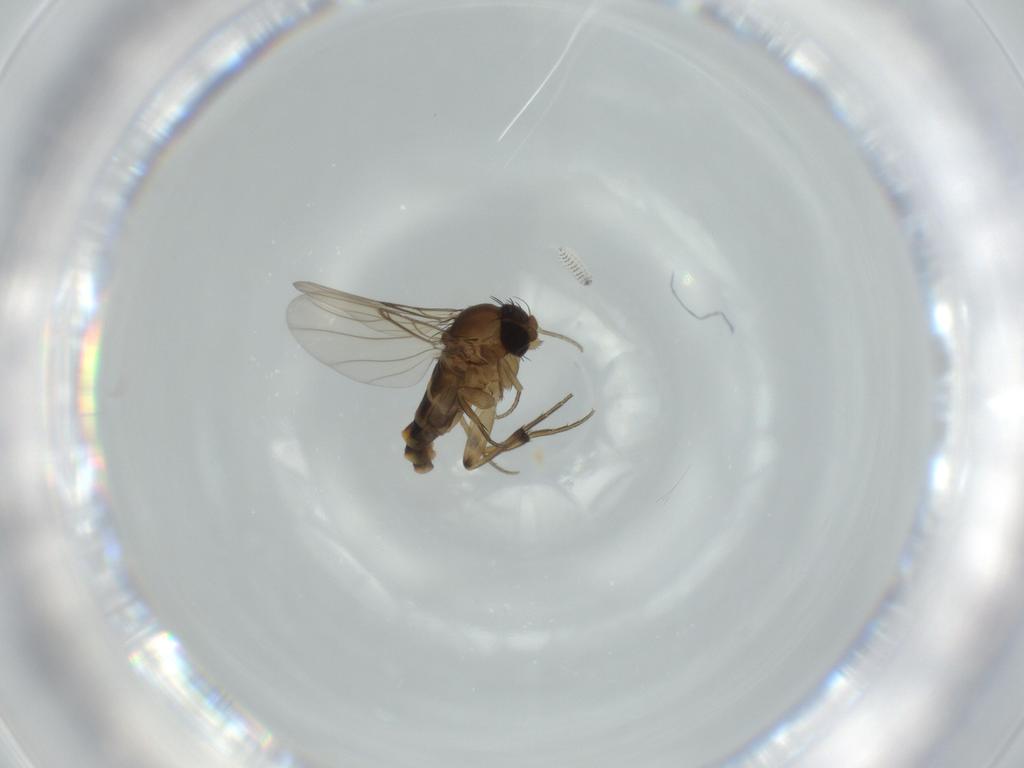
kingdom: Animalia
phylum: Arthropoda
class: Insecta
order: Diptera
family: Phoridae
